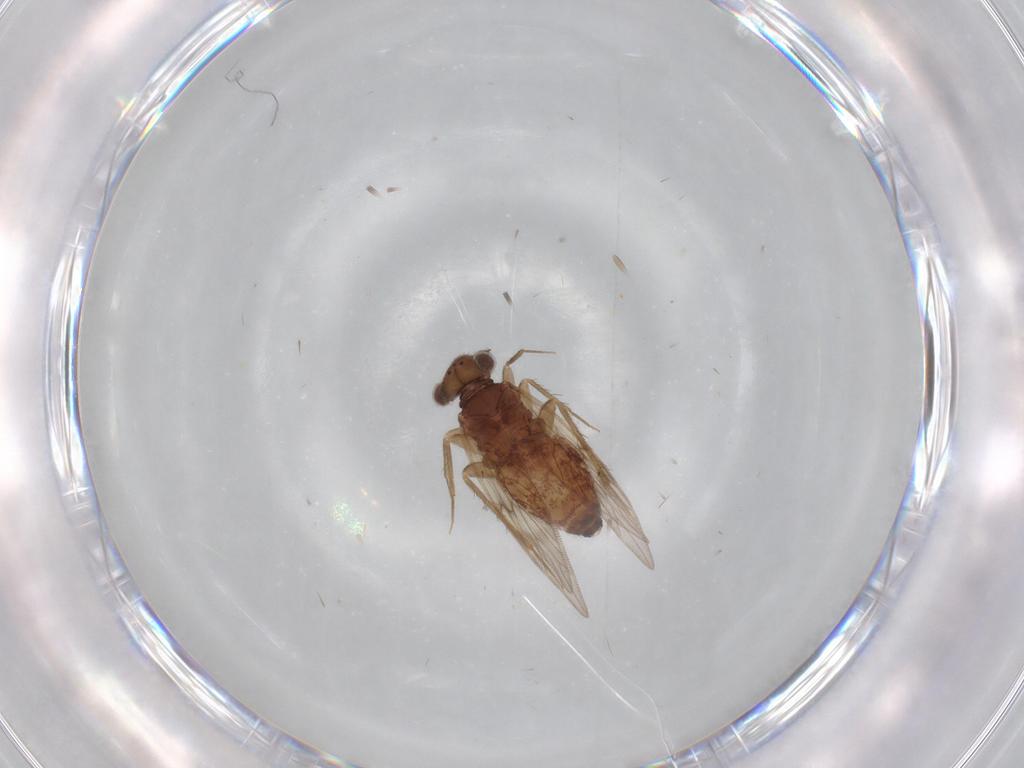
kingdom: Animalia
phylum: Arthropoda
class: Insecta
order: Psocodea
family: Lepidopsocidae
